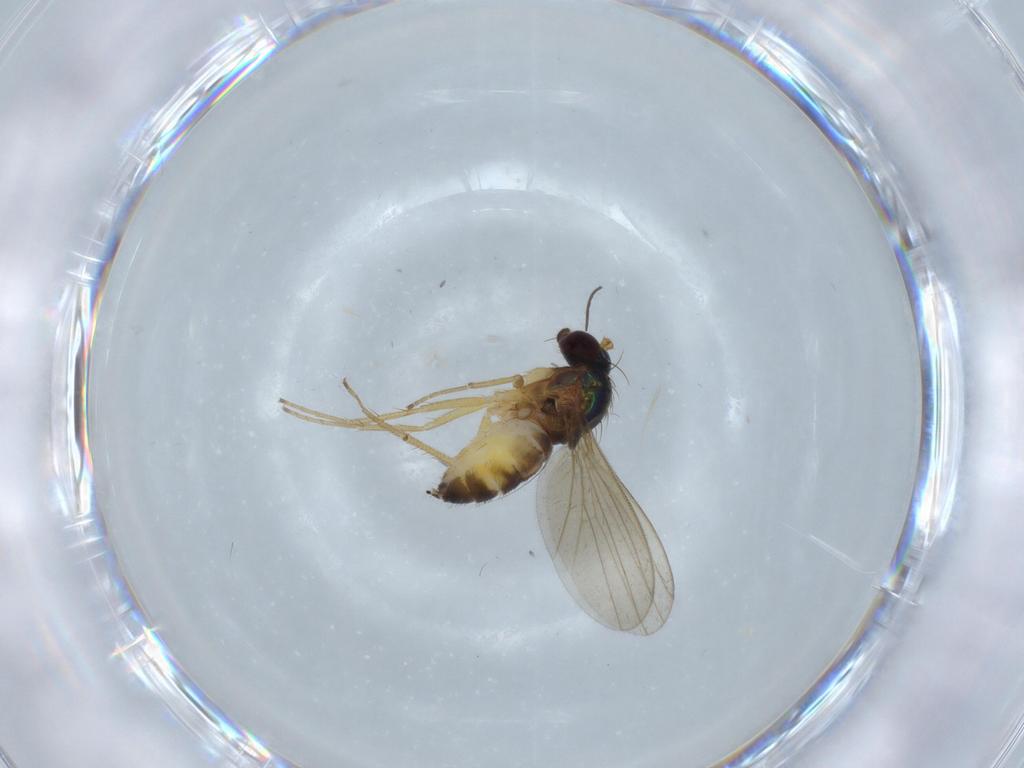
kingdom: Animalia
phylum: Arthropoda
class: Insecta
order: Diptera
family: Dolichopodidae
